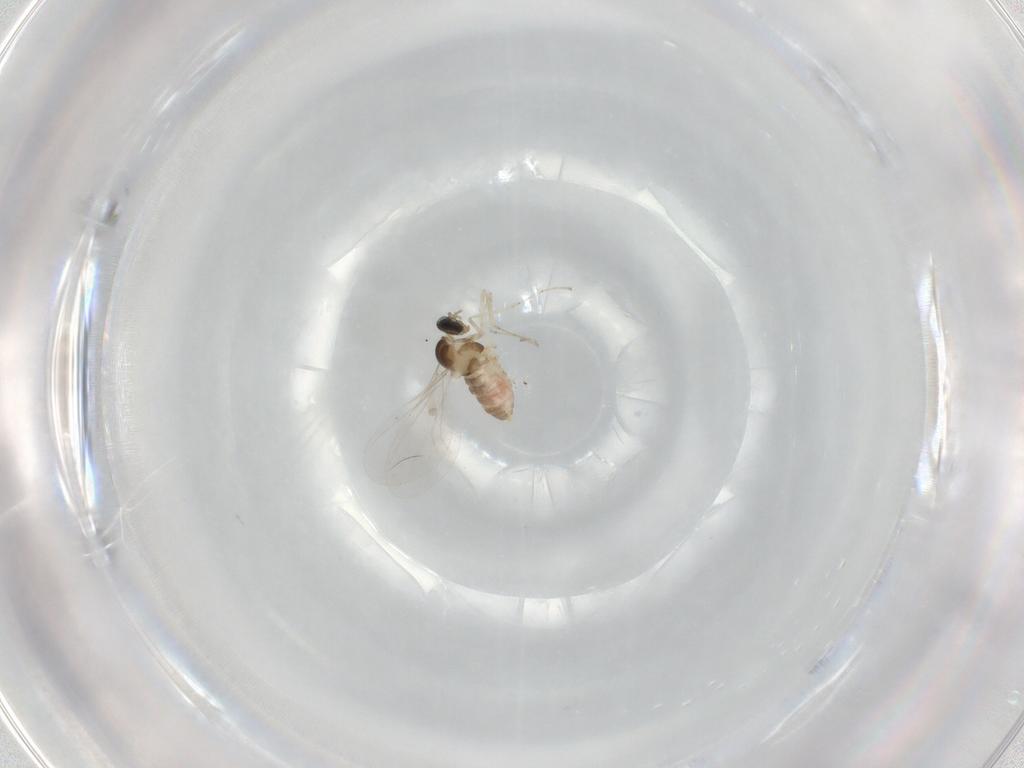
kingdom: Animalia
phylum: Arthropoda
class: Insecta
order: Diptera
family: Cecidomyiidae
